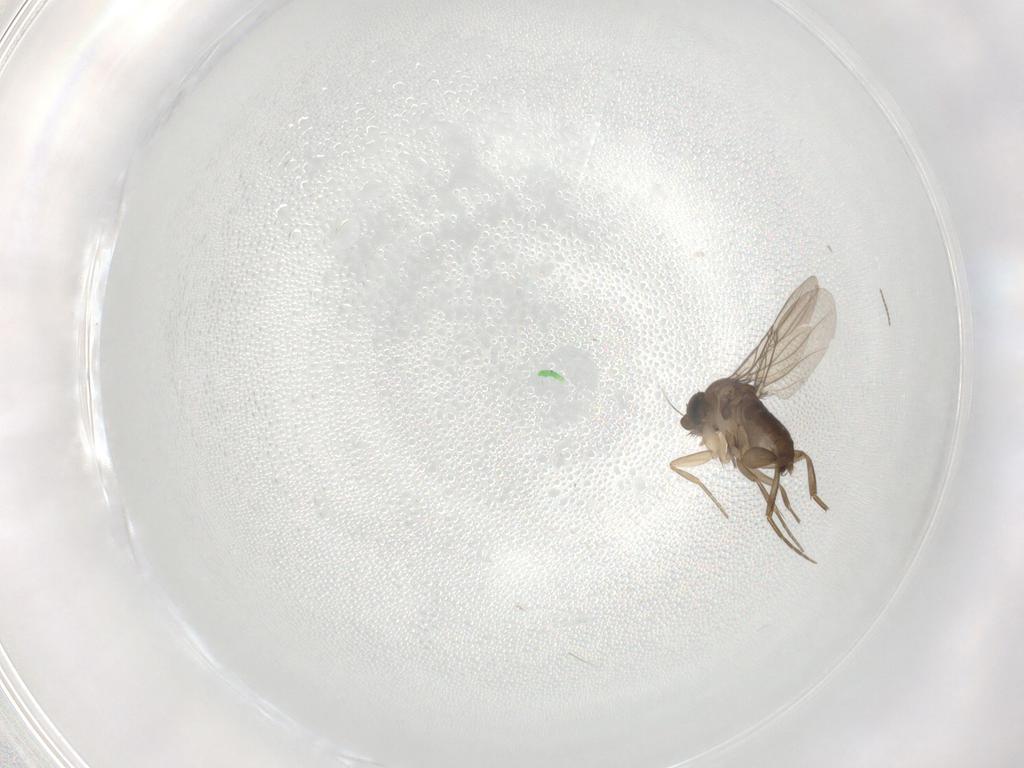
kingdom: Animalia
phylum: Arthropoda
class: Insecta
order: Diptera
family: Phoridae
